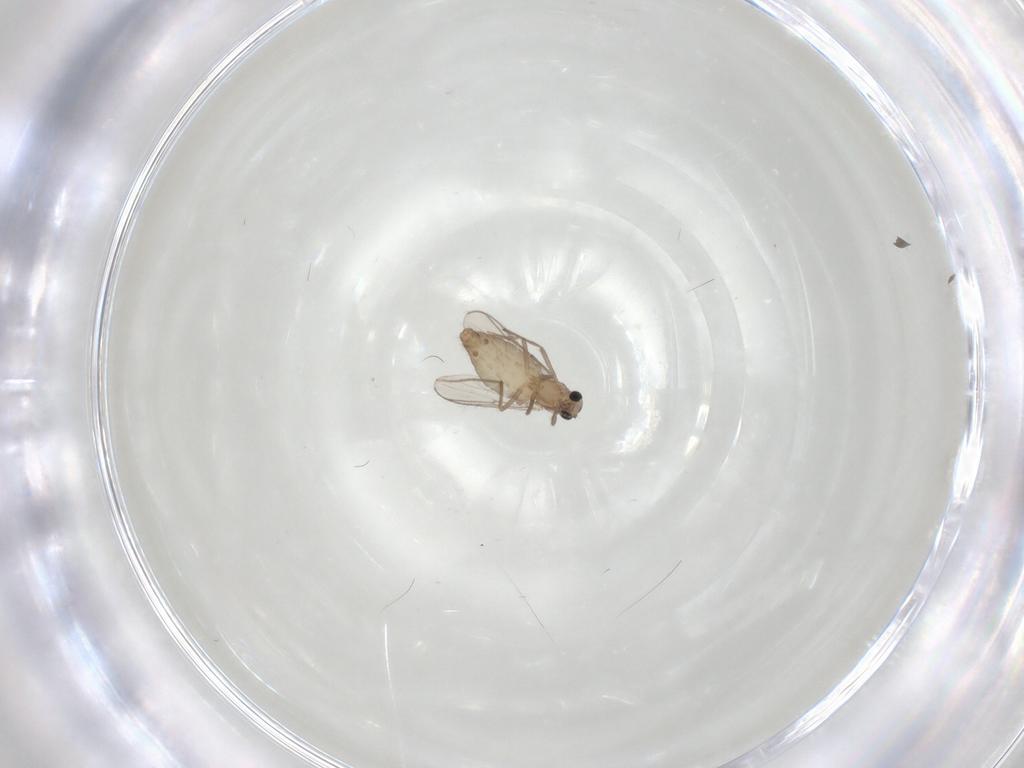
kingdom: Animalia
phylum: Arthropoda
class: Insecta
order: Diptera
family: Chironomidae
